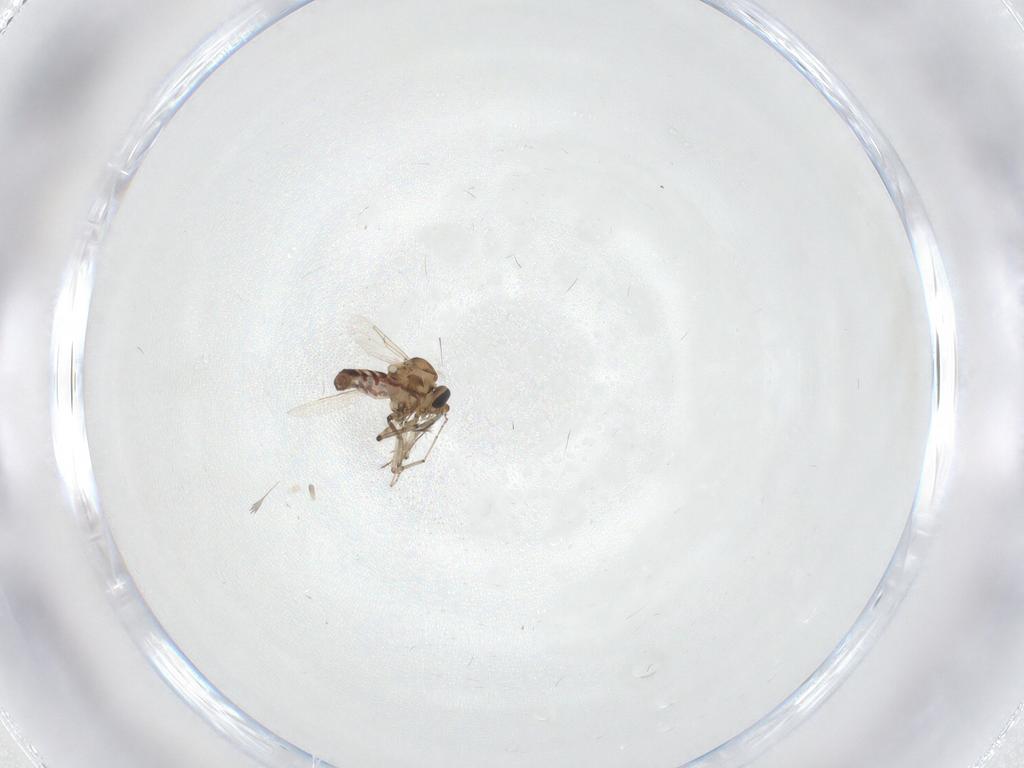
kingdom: Animalia
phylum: Arthropoda
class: Insecta
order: Diptera
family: Ceratopogonidae
